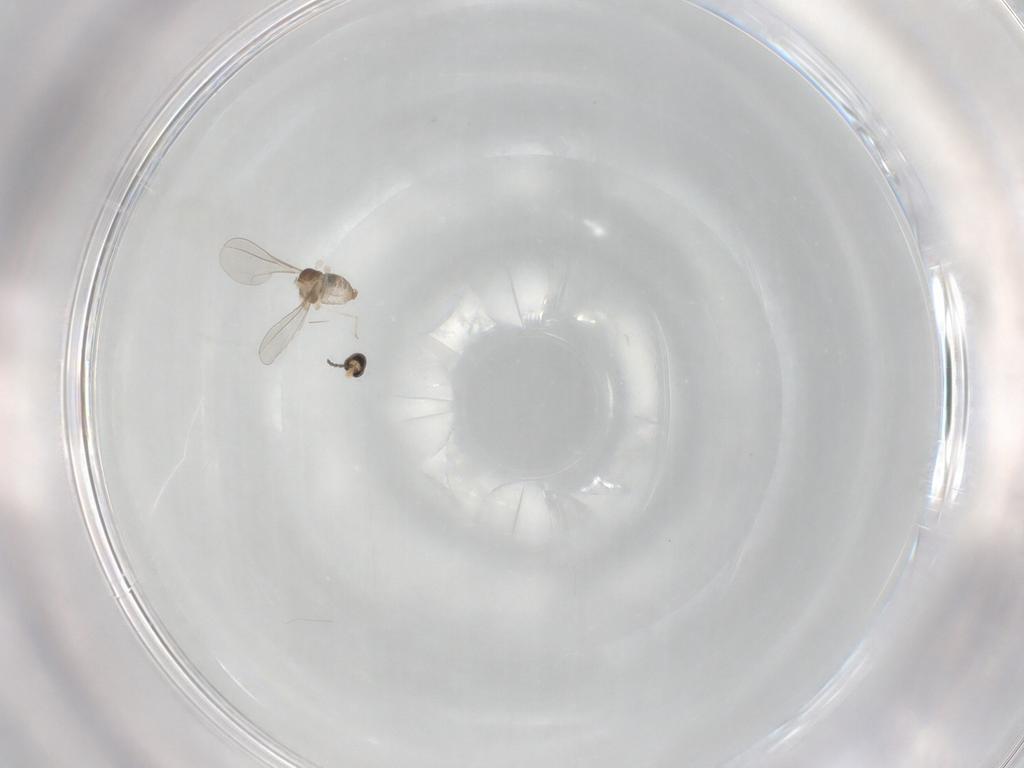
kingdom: Animalia
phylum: Arthropoda
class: Insecta
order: Diptera
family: Cecidomyiidae
